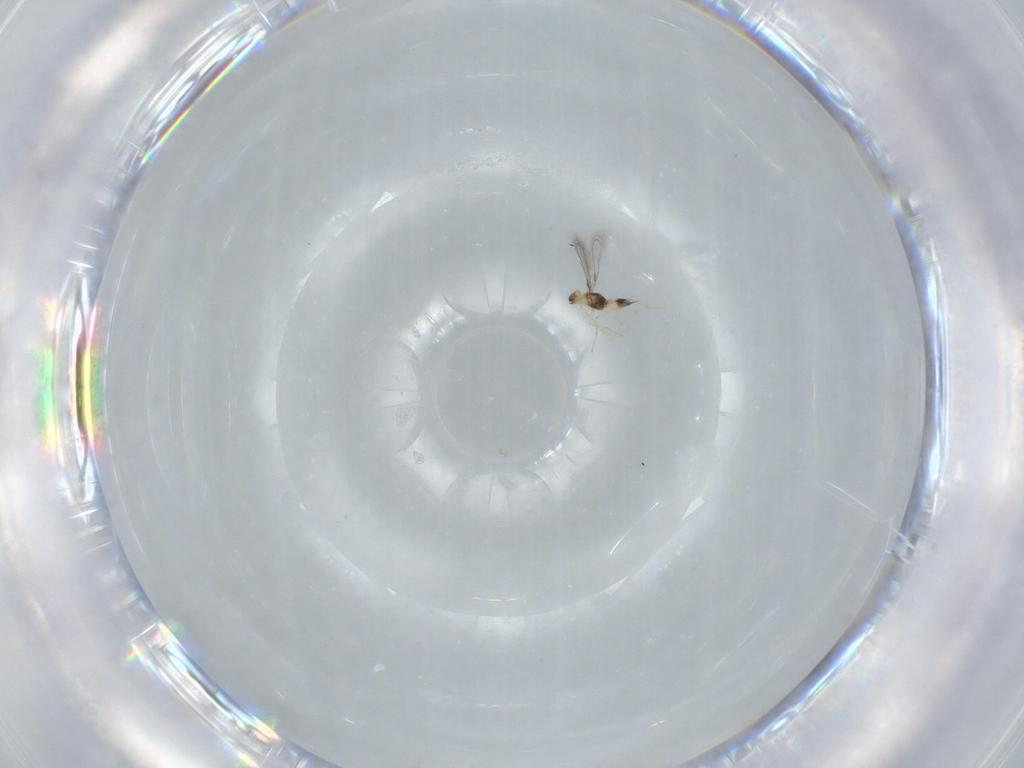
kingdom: Animalia
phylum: Arthropoda
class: Insecta
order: Hymenoptera
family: Mymaridae
